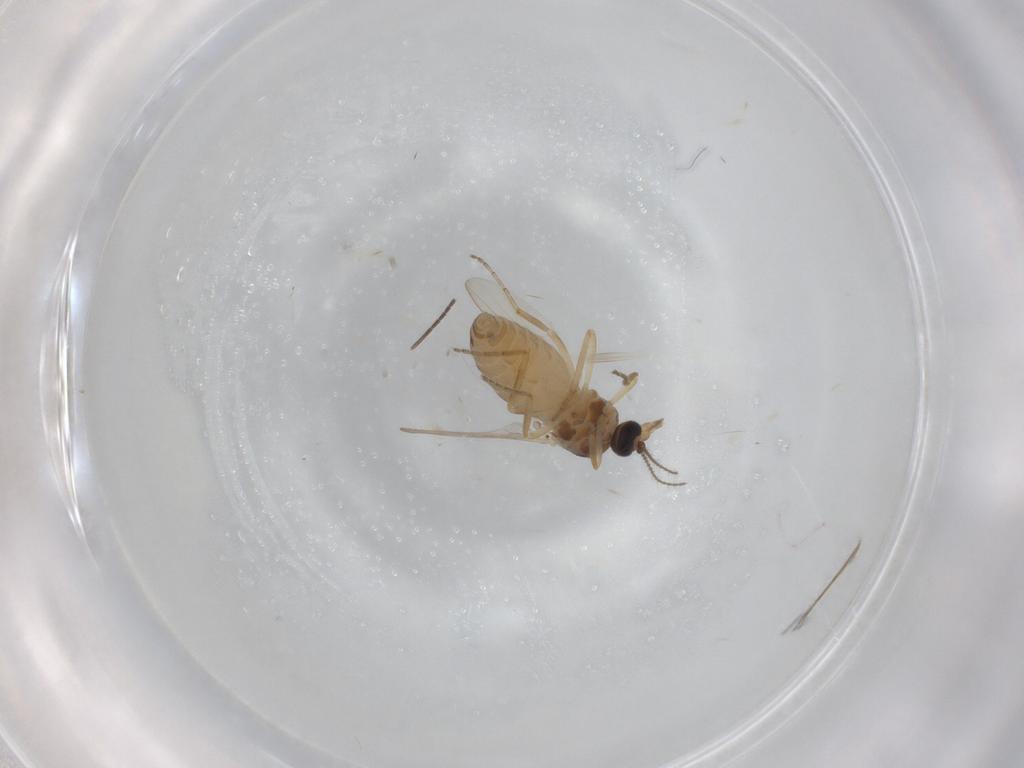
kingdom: Animalia
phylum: Arthropoda
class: Insecta
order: Diptera
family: Ceratopogonidae
